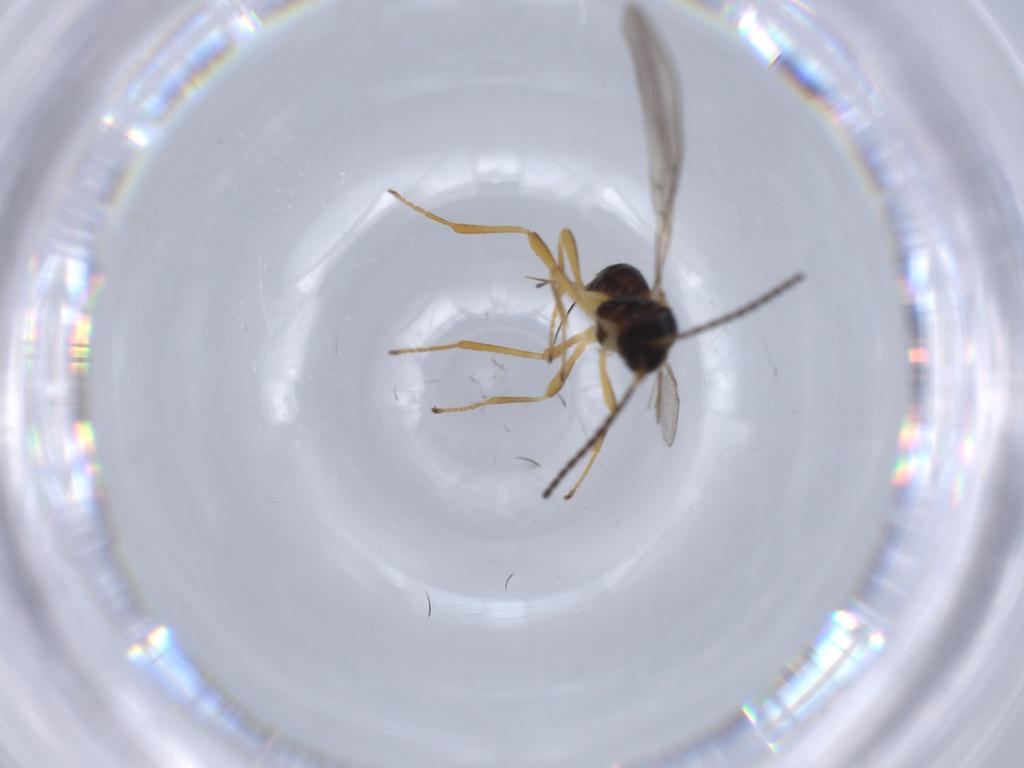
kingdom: Animalia
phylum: Arthropoda
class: Insecta
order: Hymenoptera
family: Braconidae
